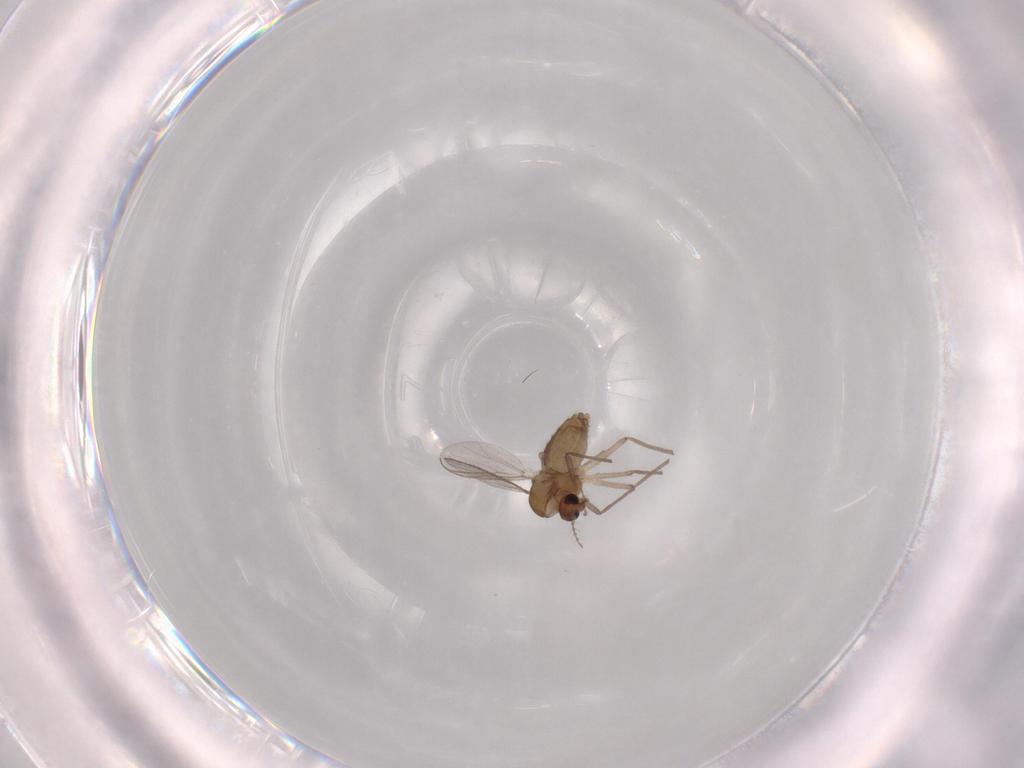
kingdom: Animalia
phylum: Arthropoda
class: Insecta
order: Diptera
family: Chironomidae
